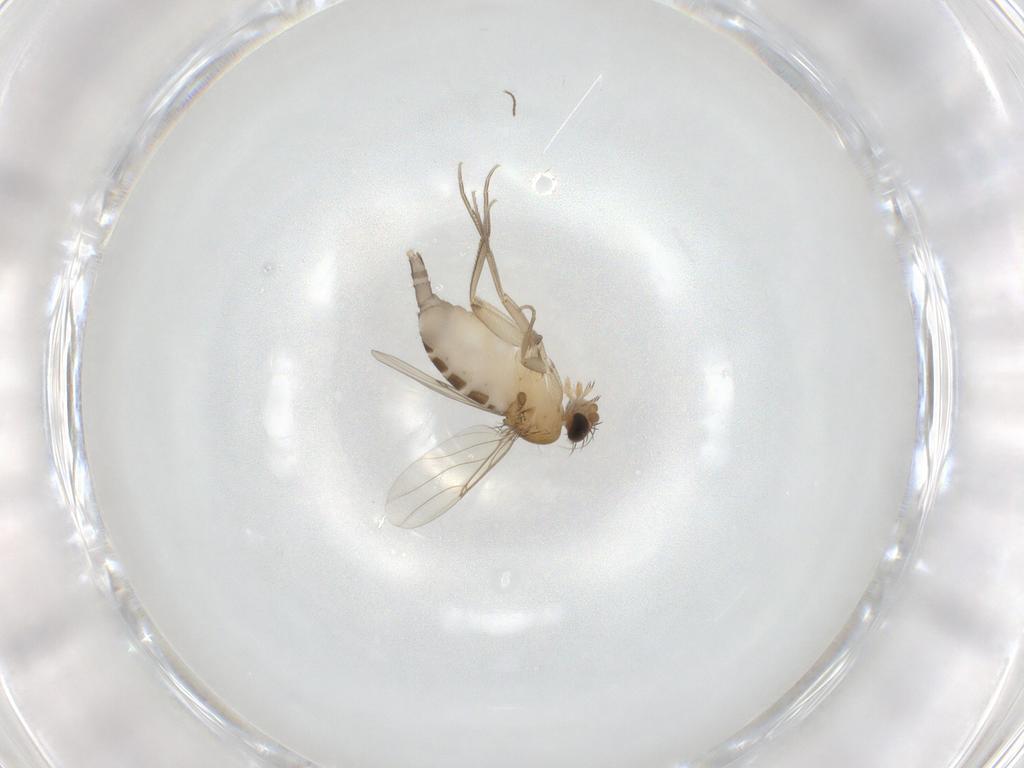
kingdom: Animalia
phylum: Arthropoda
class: Insecta
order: Diptera
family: Phoridae
